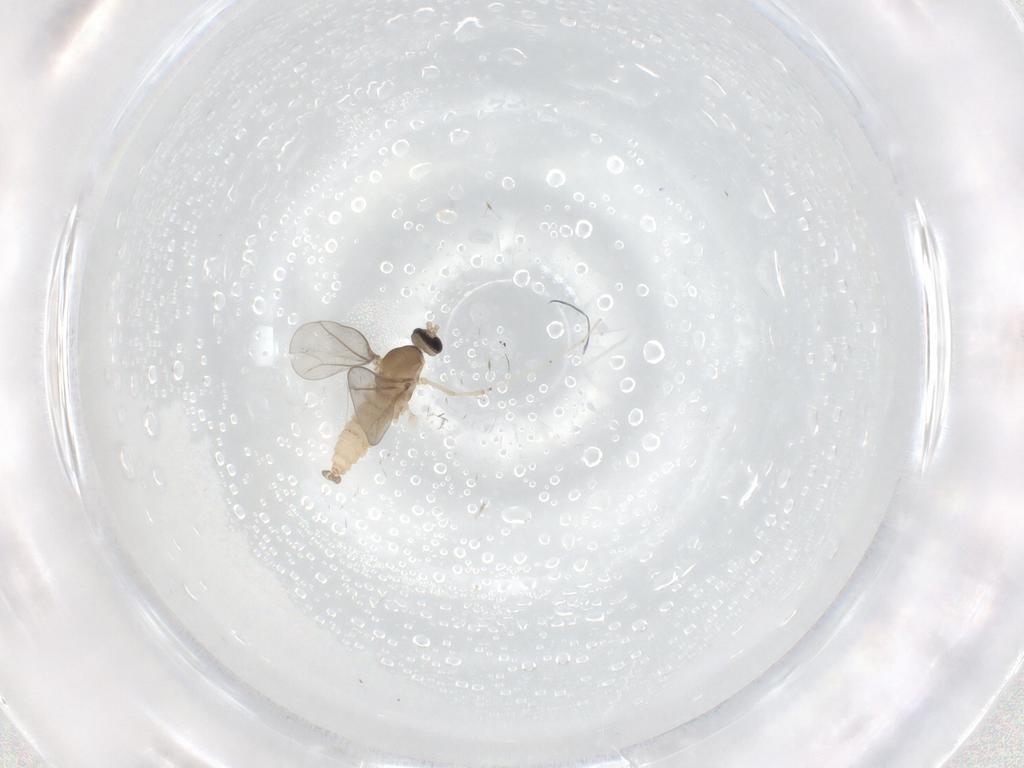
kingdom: Animalia
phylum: Arthropoda
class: Insecta
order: Diptera
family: Cecidomyiidae
